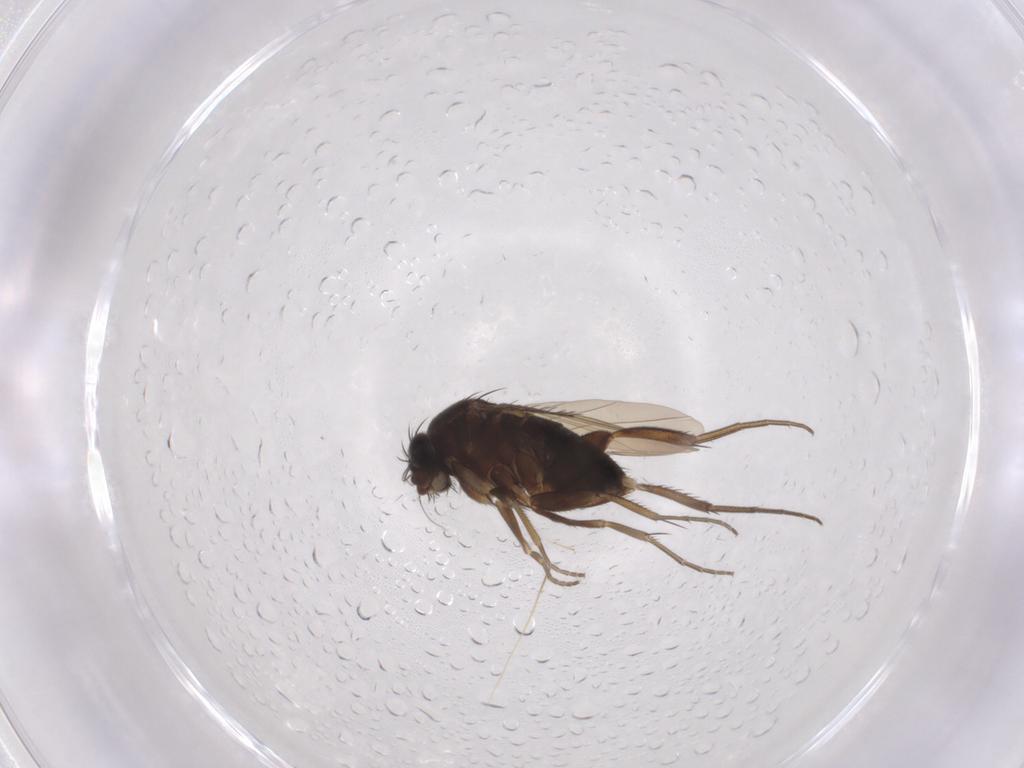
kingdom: Animalia
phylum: Arthropoda
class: Insecta
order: Diptera
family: Phoridae
